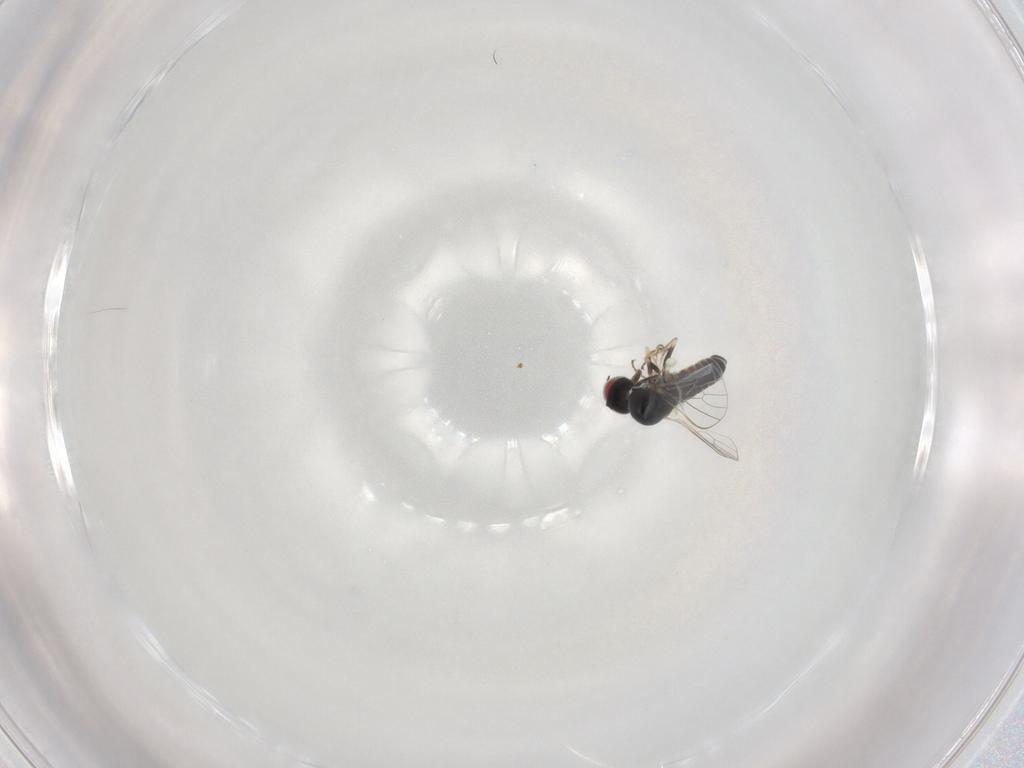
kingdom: Animalia
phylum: Arthropoda
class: Insecta
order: Diptera
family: Bombyliidae
